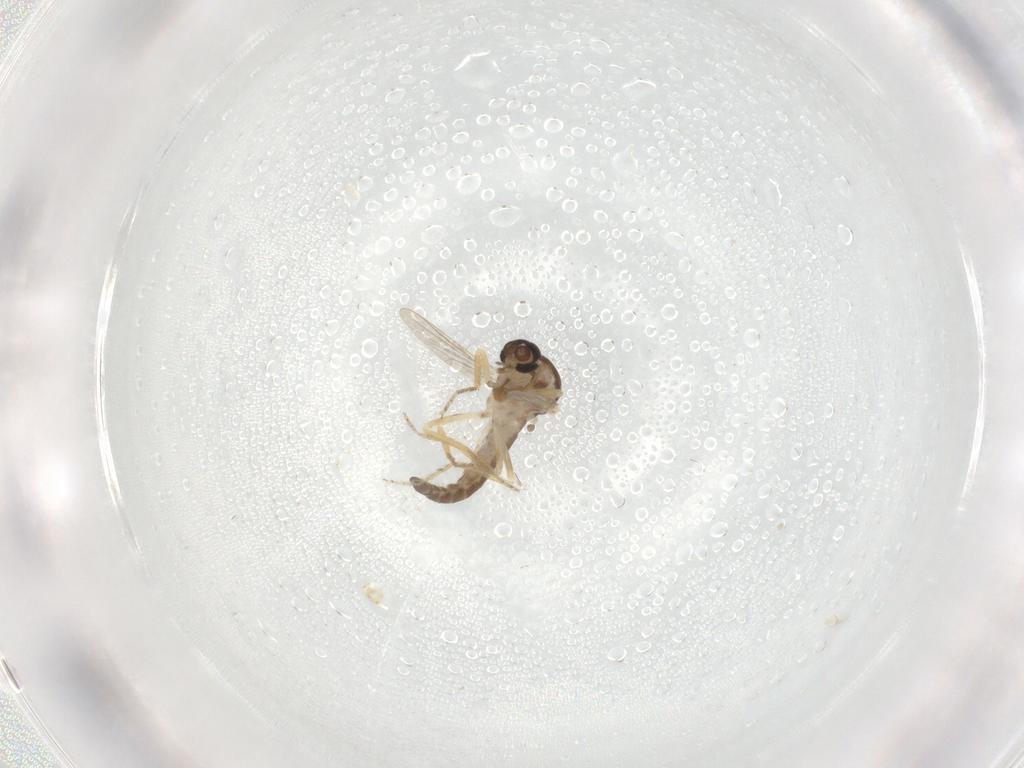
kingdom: Animalia
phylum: Arthropoda
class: Insecta
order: Diptera
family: Ceratopogonidae
